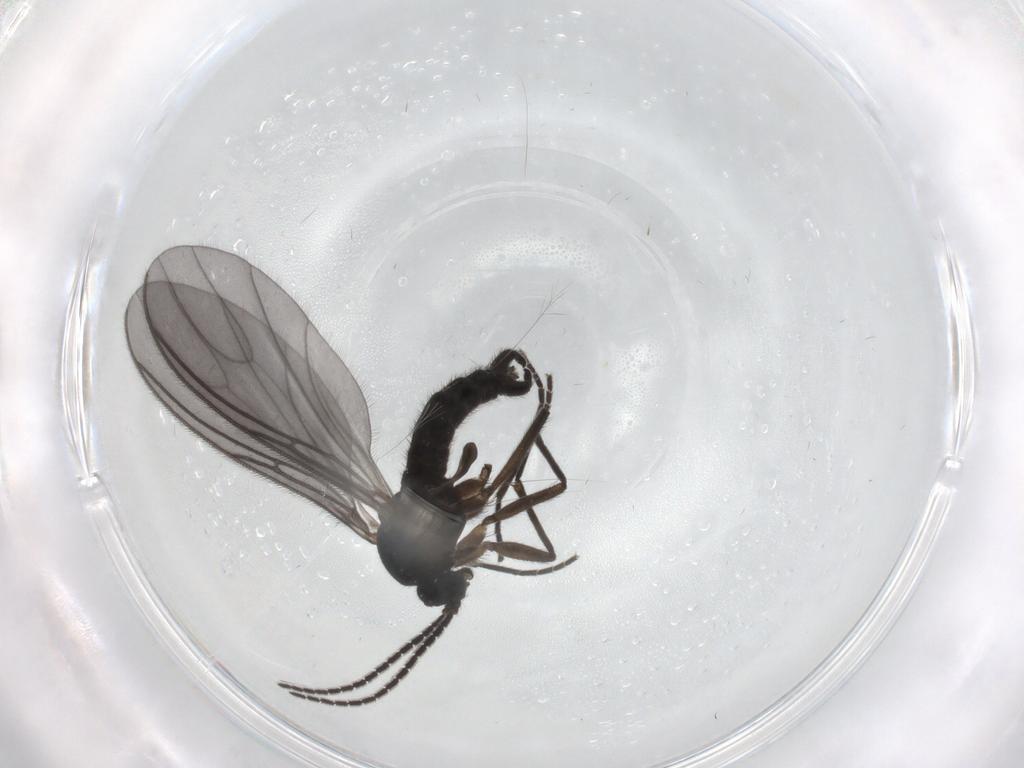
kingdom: Animalia
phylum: Arthropoda
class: Insecta
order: Diptera
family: Sciaridae
